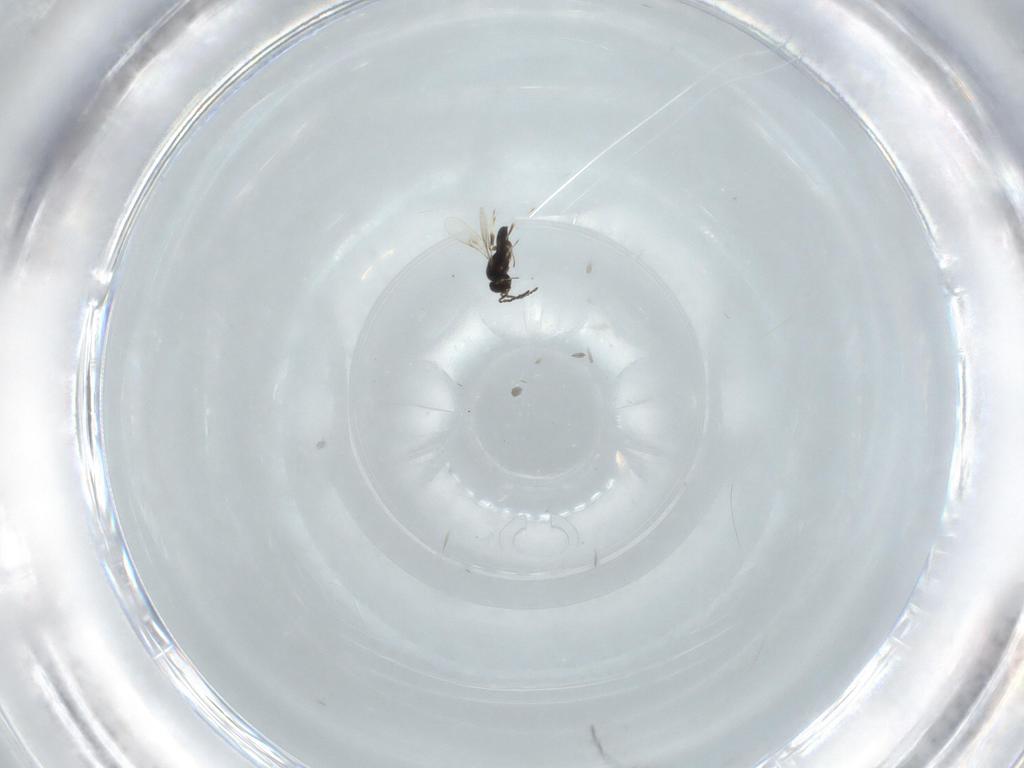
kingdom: Animalia
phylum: Arthropoda
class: Insecta
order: Hymenoptera
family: Scelionidae
